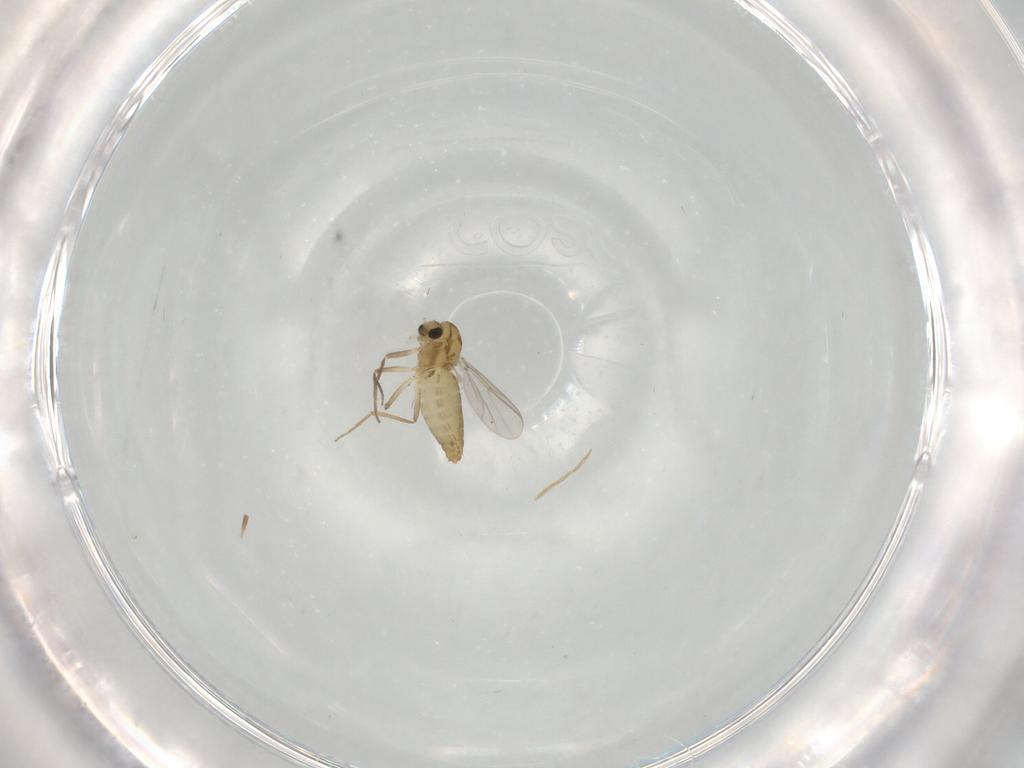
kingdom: Animalia
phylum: Arthropoda
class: Insecta
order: Diptera
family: Chironomidae
